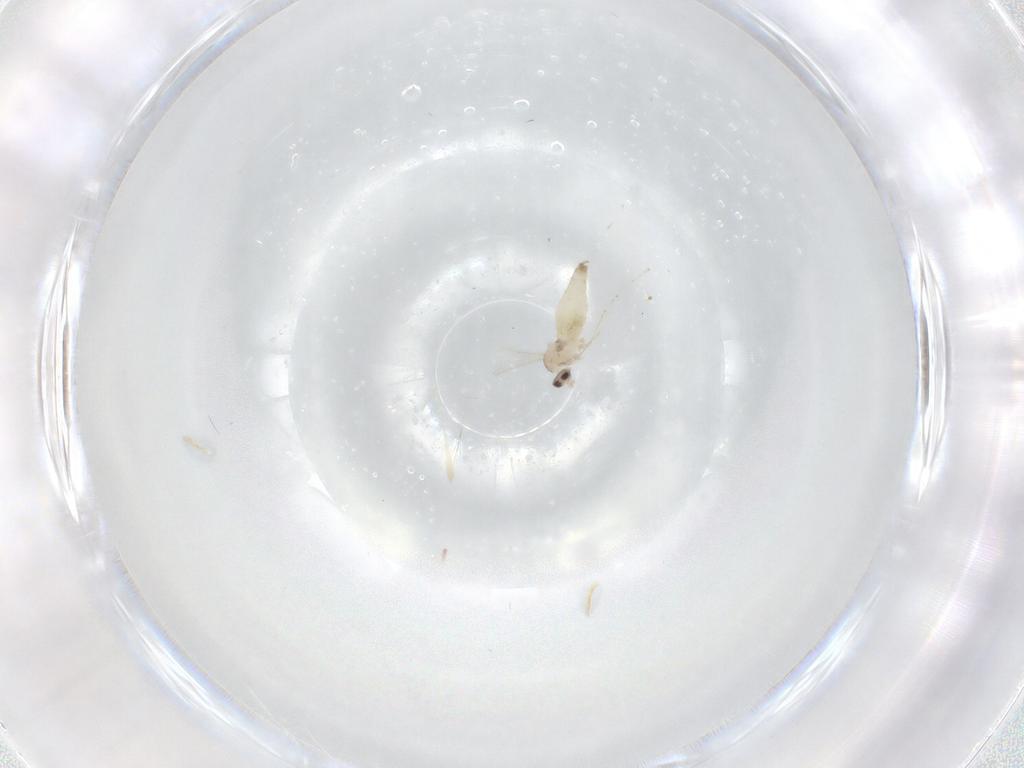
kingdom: Animalia
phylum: Arthropoda
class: Insecta
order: Diptera
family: Cecidomyiidae
